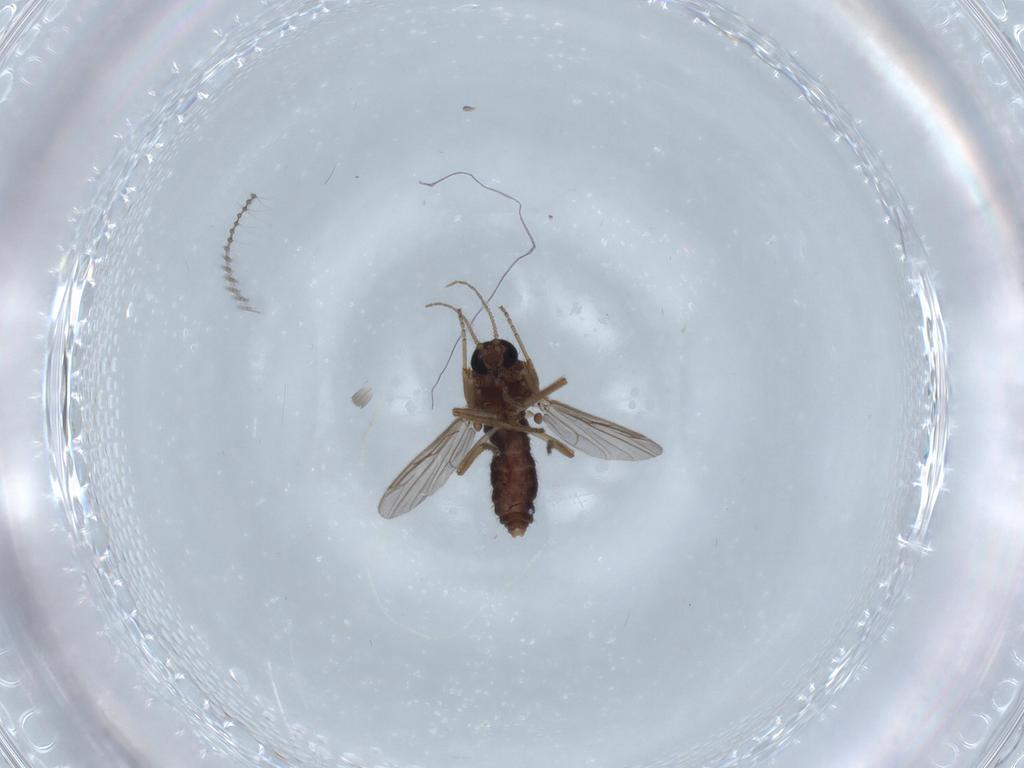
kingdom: Animalia
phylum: Arthropoda
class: Insecta
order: Diptera
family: Ceratopogonidae
